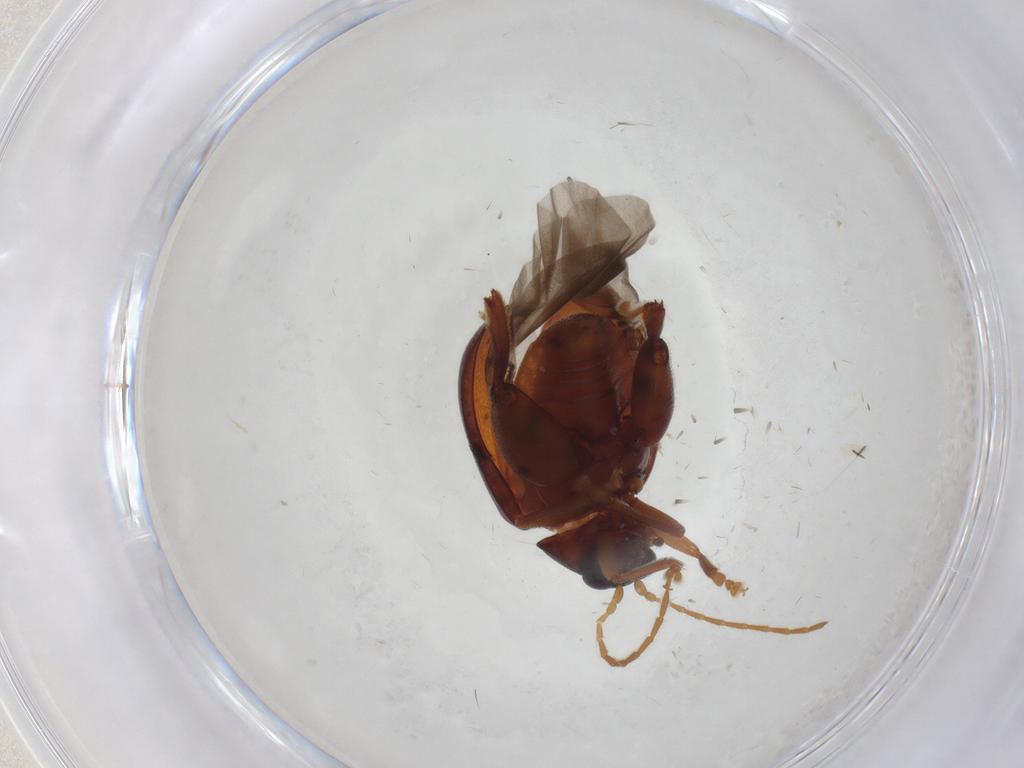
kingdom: Animalia
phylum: Arthropoda
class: Insecta
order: Coleoptera
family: Chrysomelidae
